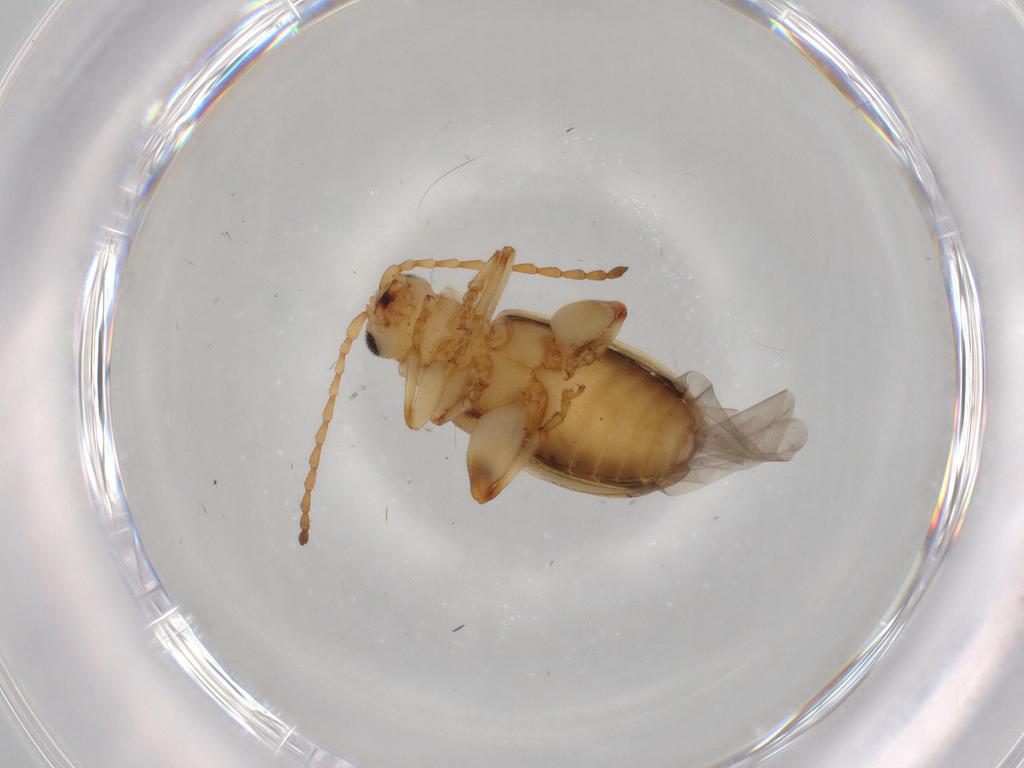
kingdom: Animalia
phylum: Arthropoda
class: Insecta
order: Coleoptera
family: Chrysomelidae
